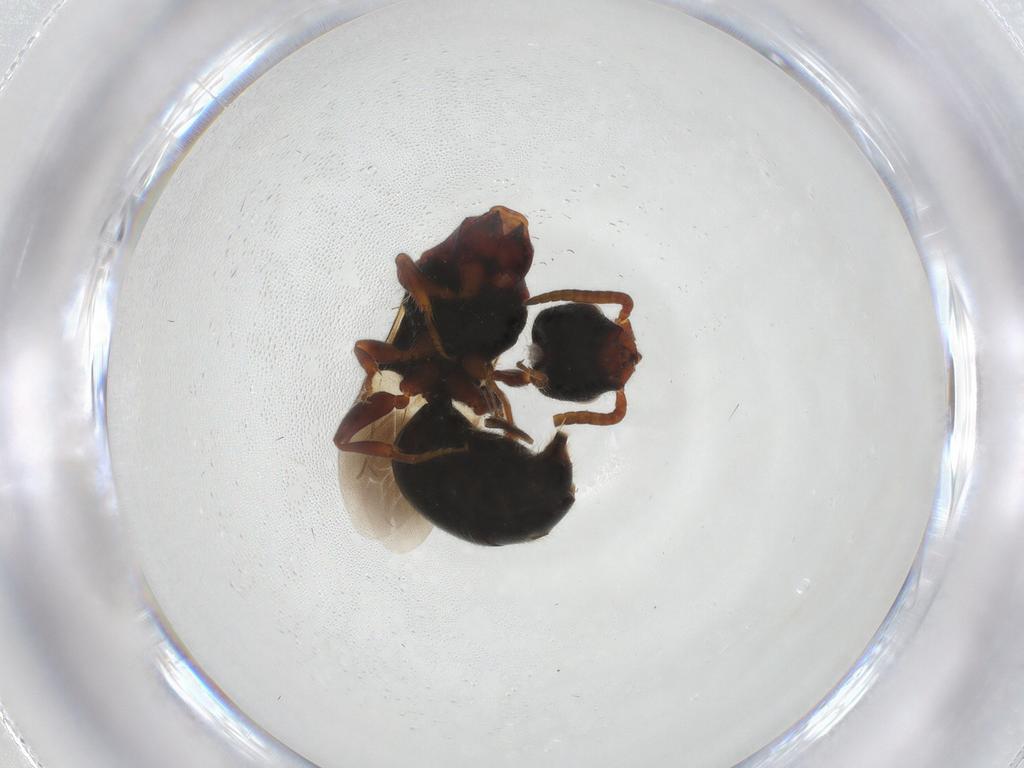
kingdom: Animalia
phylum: Arthropoda
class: Insecta
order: Hymenoptera
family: Bethylidae
